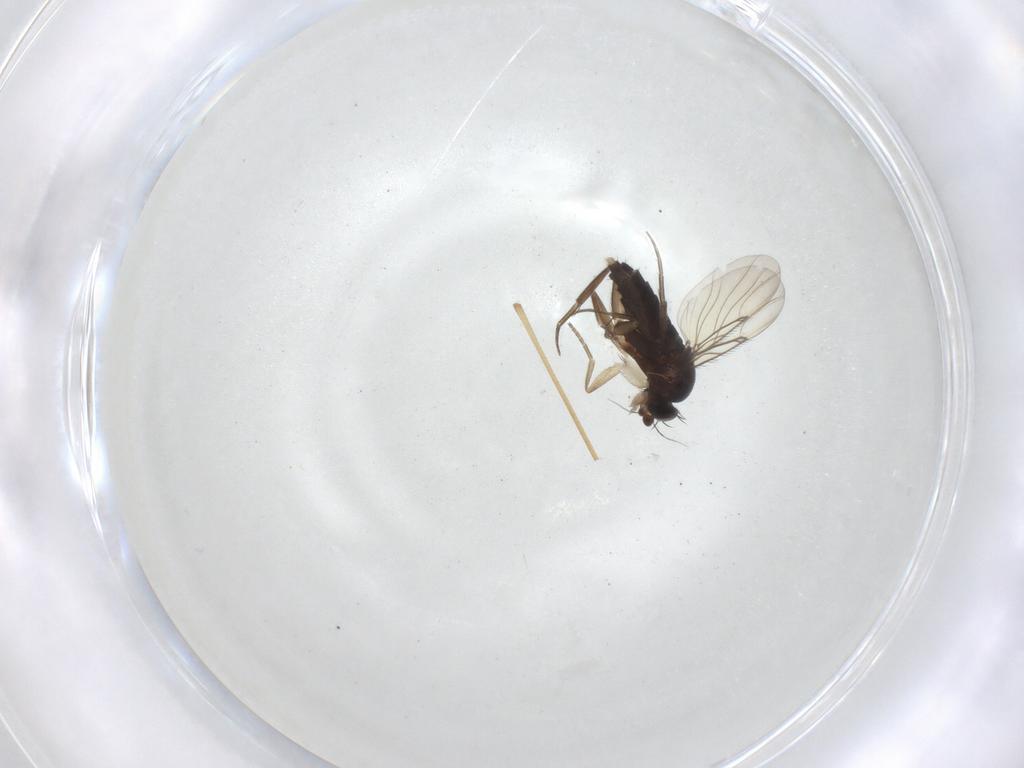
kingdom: Animalia
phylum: Arthropoda
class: Insecta
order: Diptera
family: Phoridae
